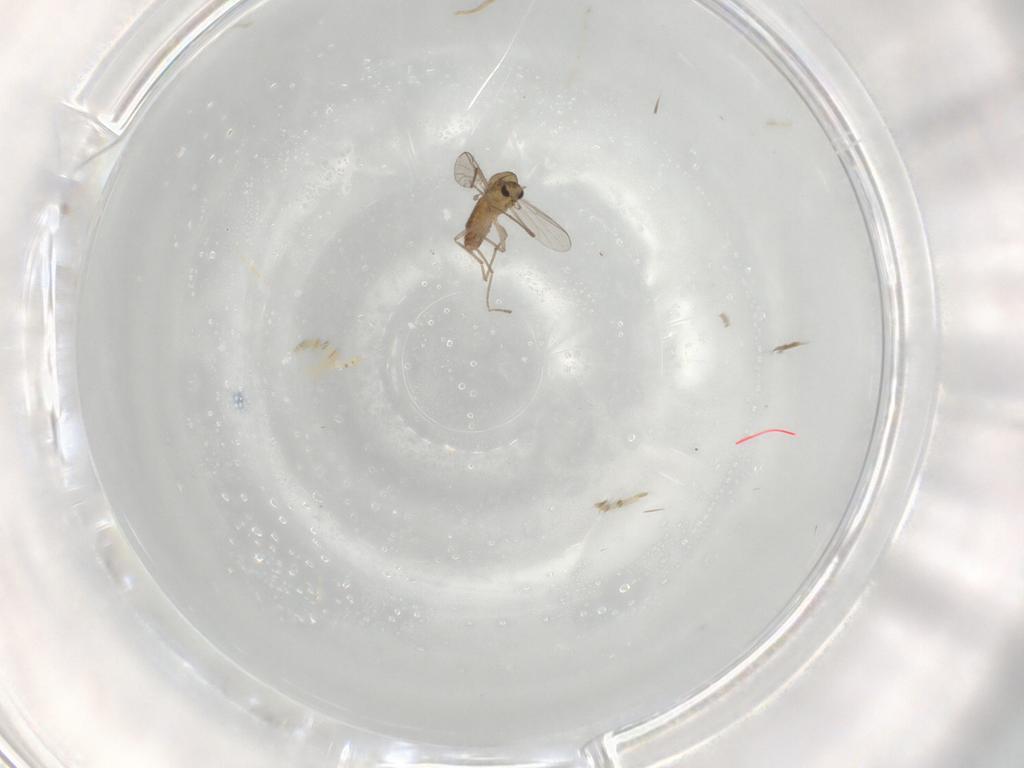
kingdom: Animalia
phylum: Arthropoda
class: Insecta
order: Diptera
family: Chironomidae
